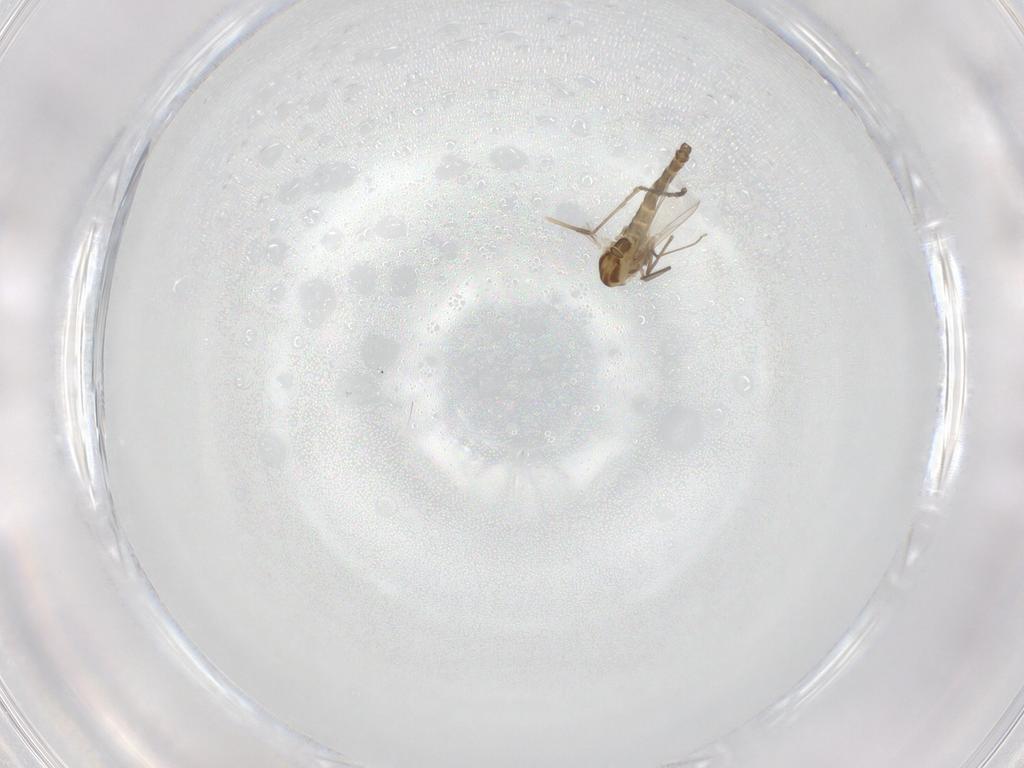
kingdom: Animalia
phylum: Arthropoda
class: Insecta
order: Diptera
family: Chironomidae
